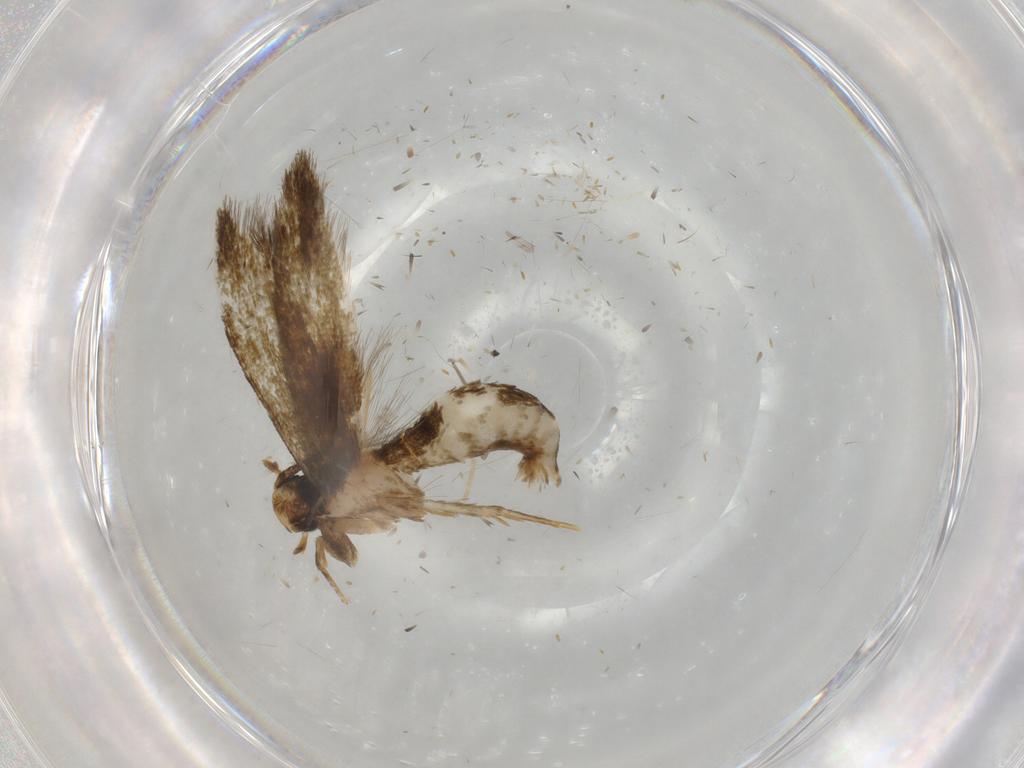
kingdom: Animalia
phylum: Arthropoda
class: Insecta
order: Lepidoptera
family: Tineidae
